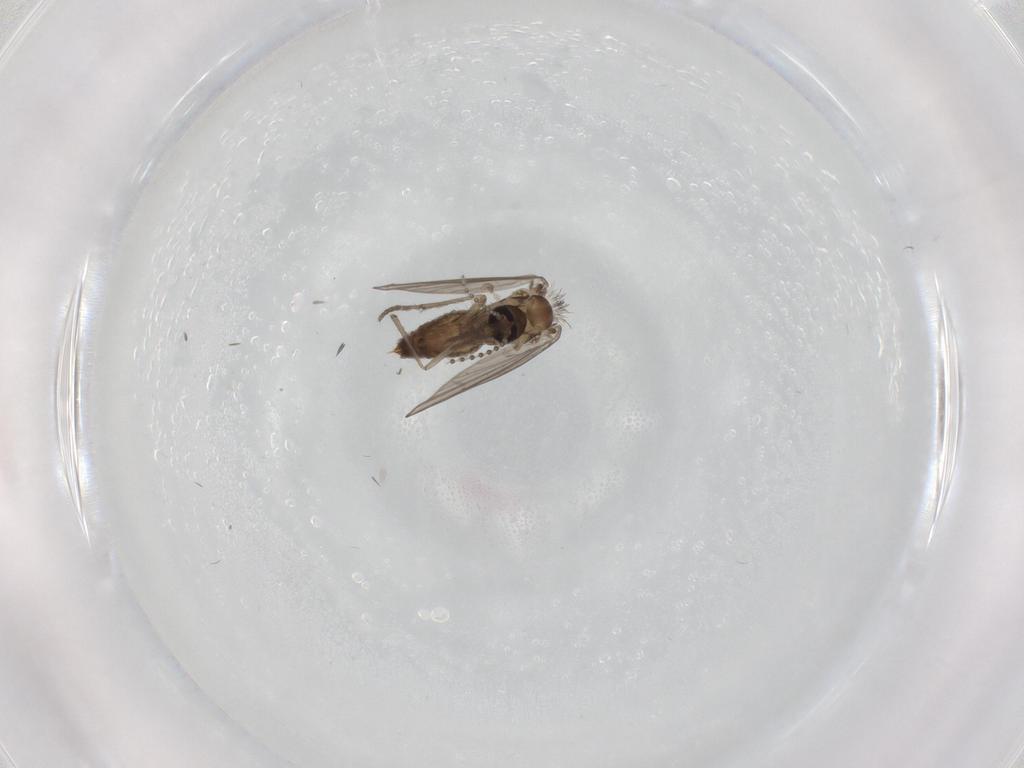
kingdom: Animalia
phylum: Arthropoda
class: Insecta
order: Diptera
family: Psychodidae
